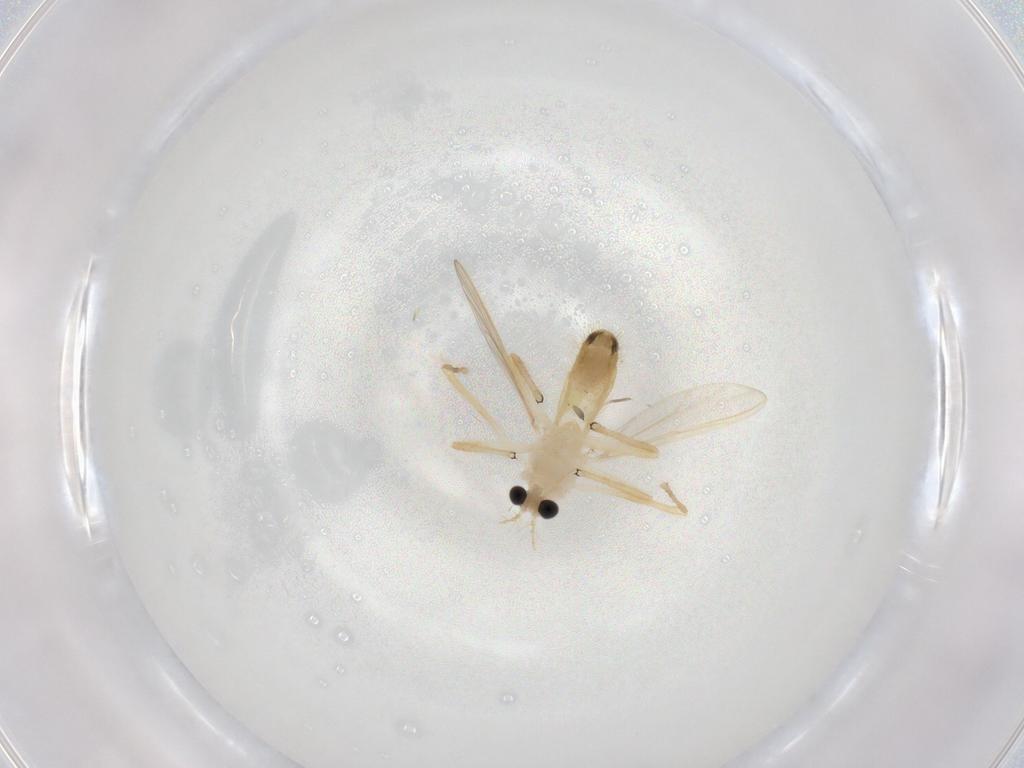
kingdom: Animalia
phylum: Arthropoda
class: Insecta
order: Diptera
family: Chironomidae
